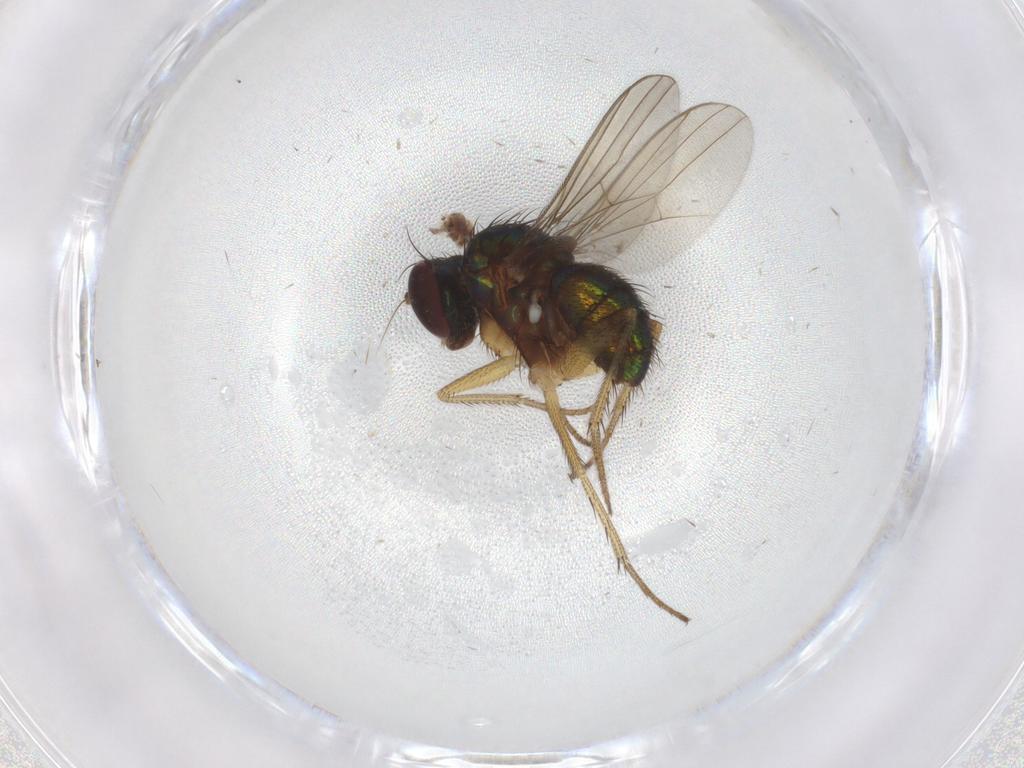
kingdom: Animalia
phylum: Arthropoda
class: Insecta
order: Diptera
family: Dolichopodidae
